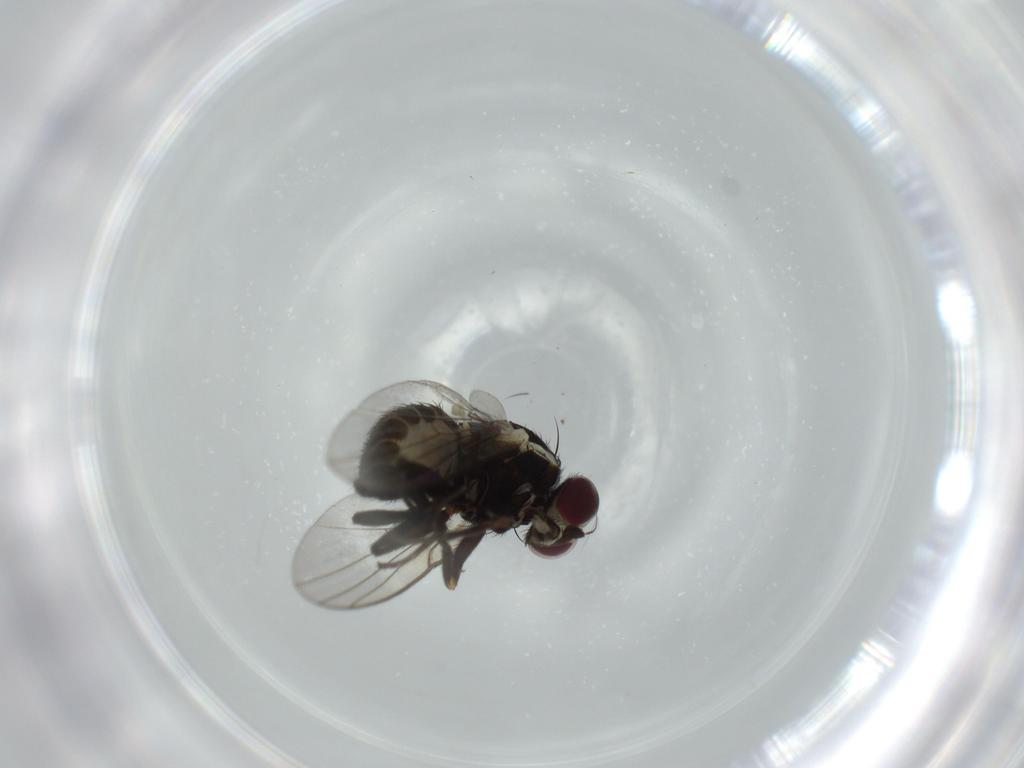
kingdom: Animalia
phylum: Arthropoda
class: Insecta
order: Diptera
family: Agromyzidae
